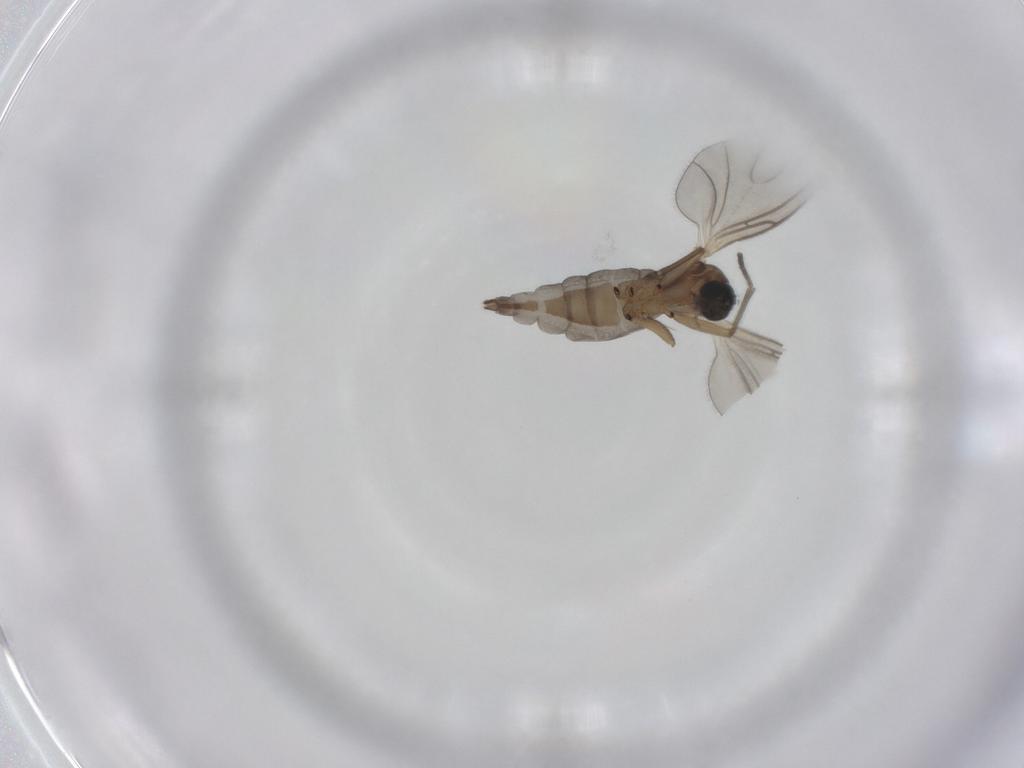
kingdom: Animalia
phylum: Arthropoda
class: Insecta
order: Diptera
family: Sciaridae
